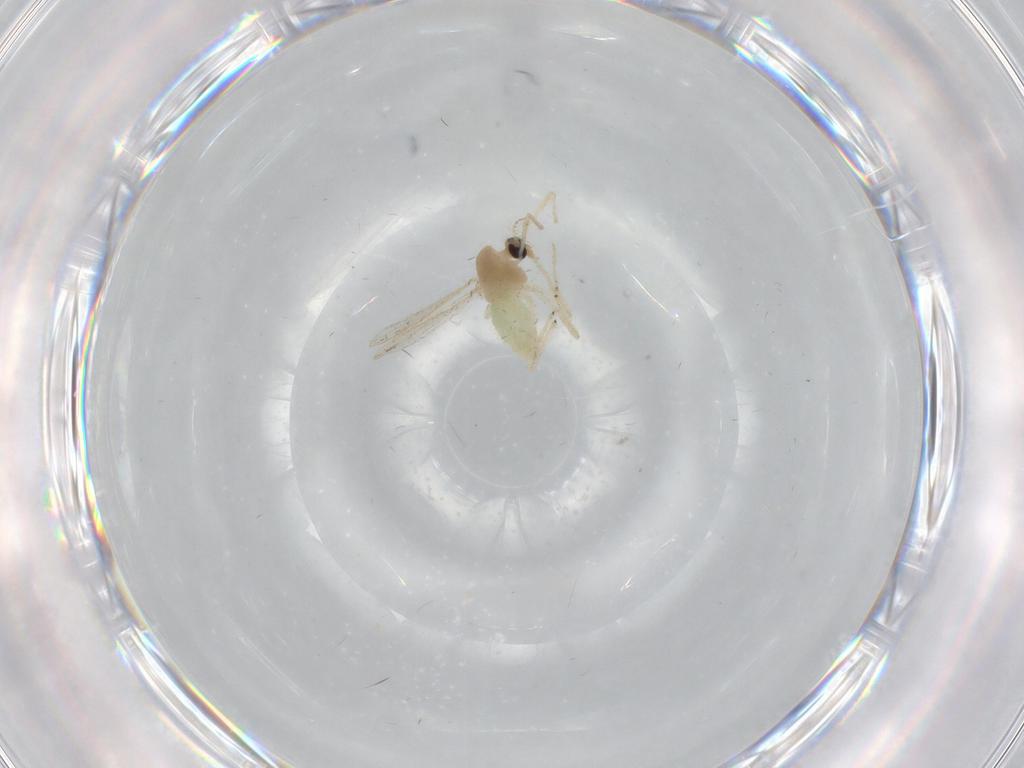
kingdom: Animalia
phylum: Arthropoda
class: Insecta
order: Diptera
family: Chironomidae
